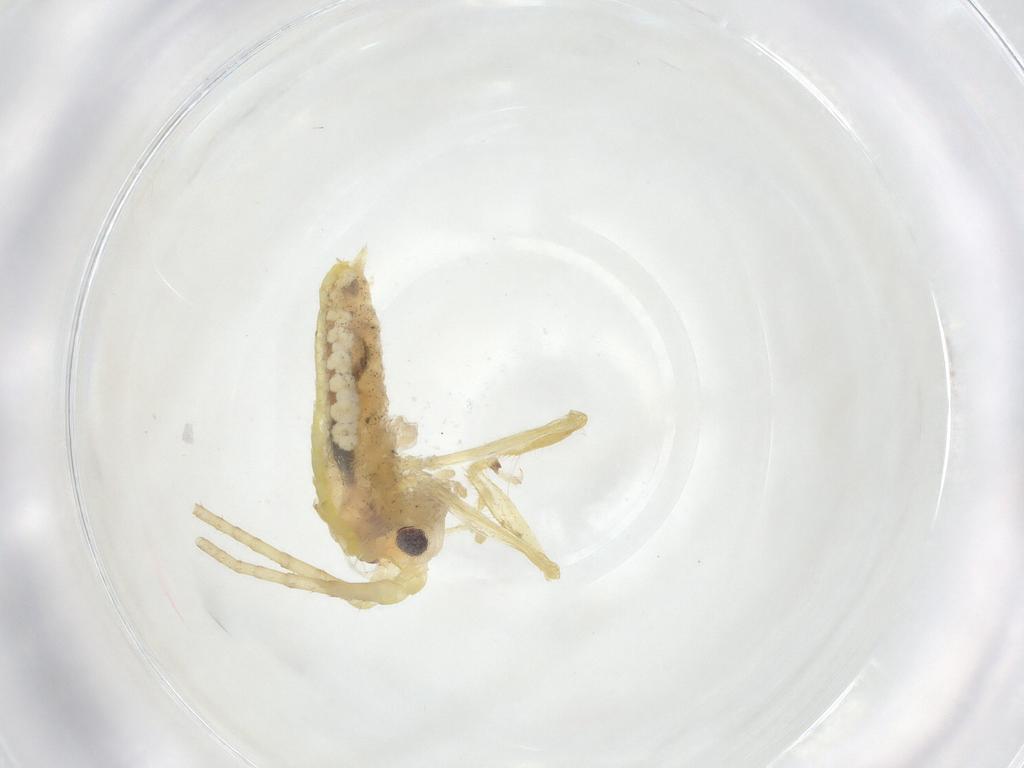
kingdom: Animalia
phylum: Arthropoda
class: Insecta
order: Orthoptera
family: Tettigoniidae
